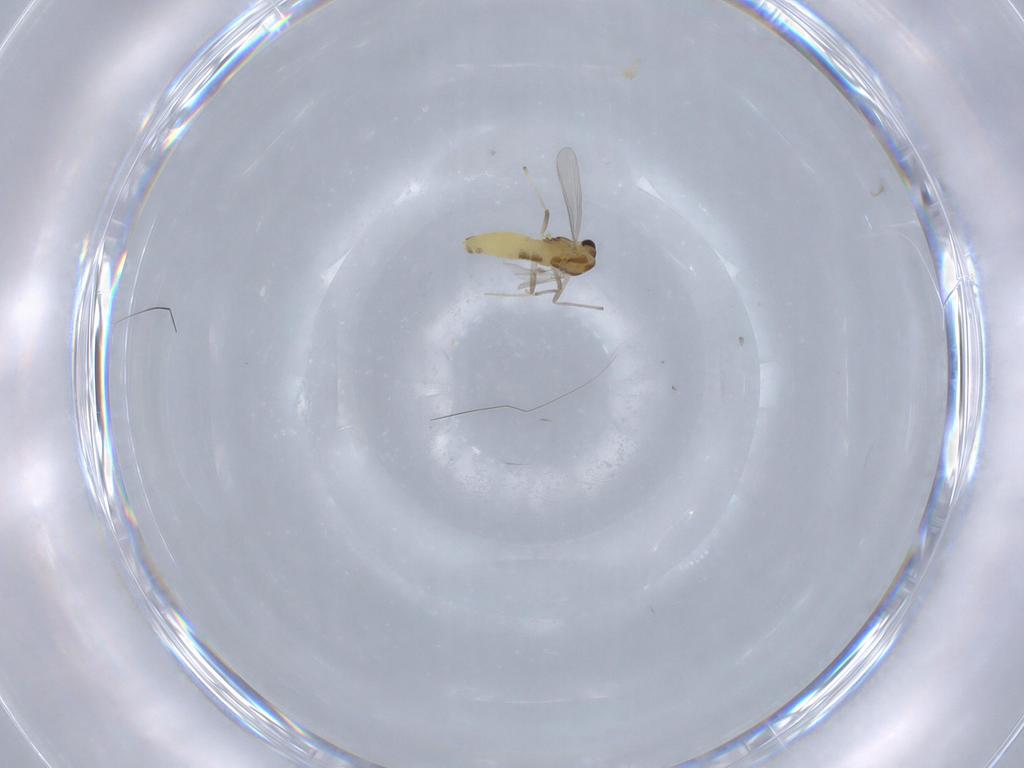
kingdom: Animalia
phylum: Arthropoda
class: Insecta
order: Diptera
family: Chironomidae
